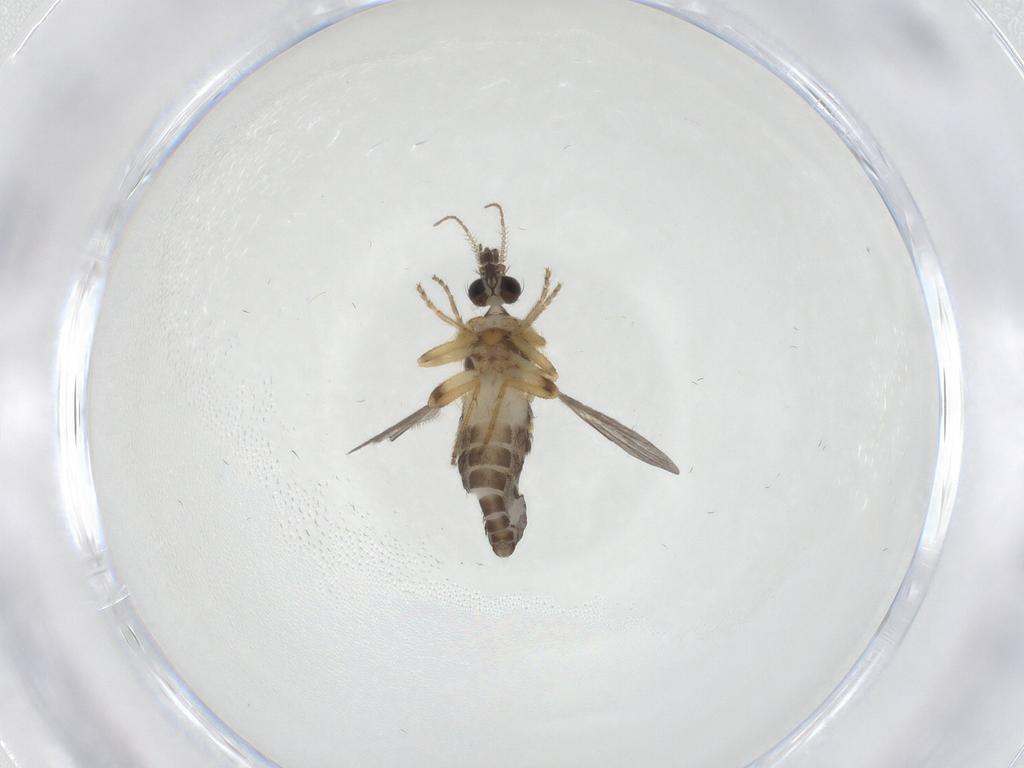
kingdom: Animalia
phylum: Arthropoda
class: Insecta
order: Diptera
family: Ceratopogonidae
